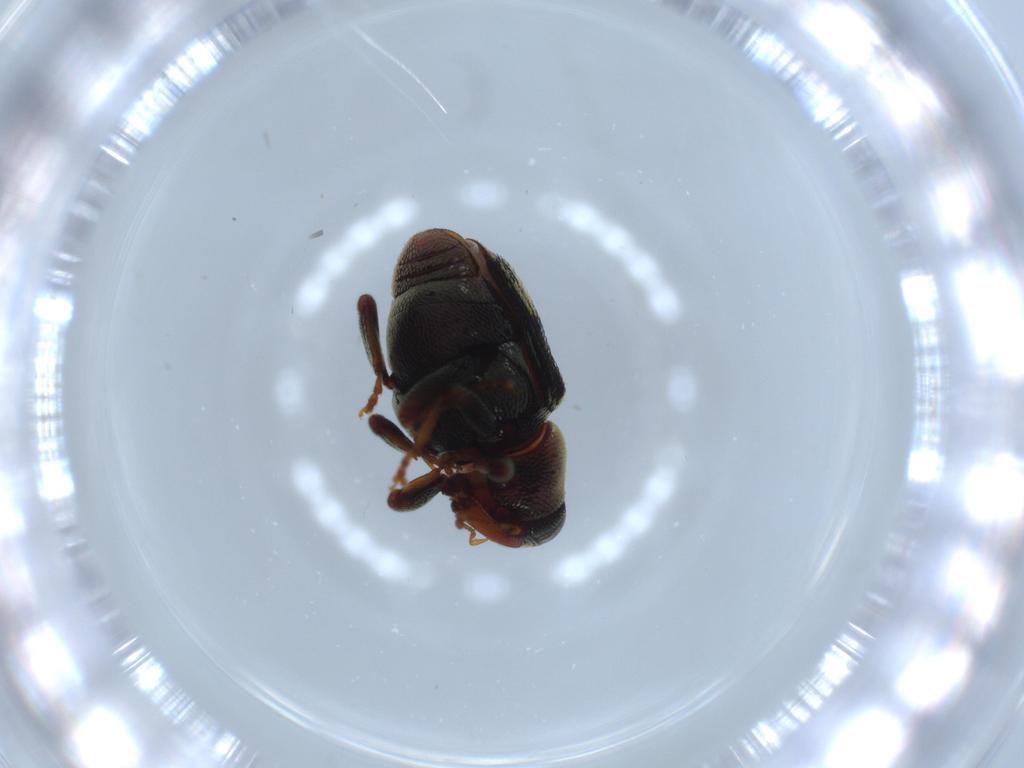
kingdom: Animalia
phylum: Arthropoda
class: Insecta
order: Coleoptera
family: Curculionidae
